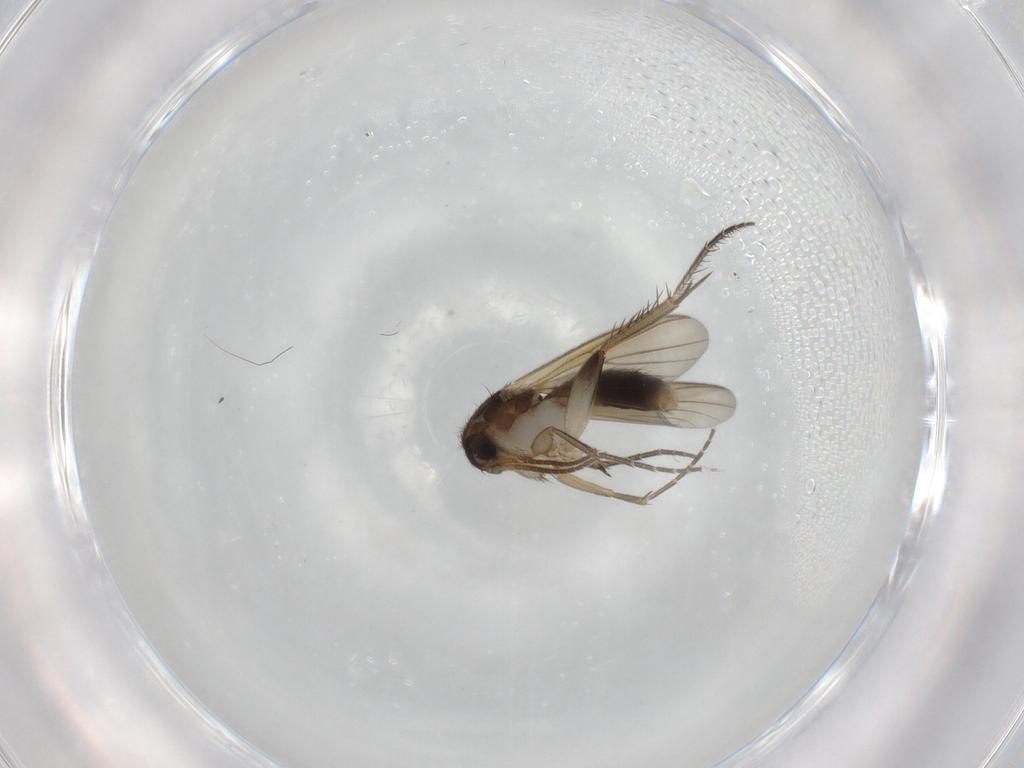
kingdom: Animalia
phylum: Arthropoda
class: Insecta
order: Diptera
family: Mycetophilidae
